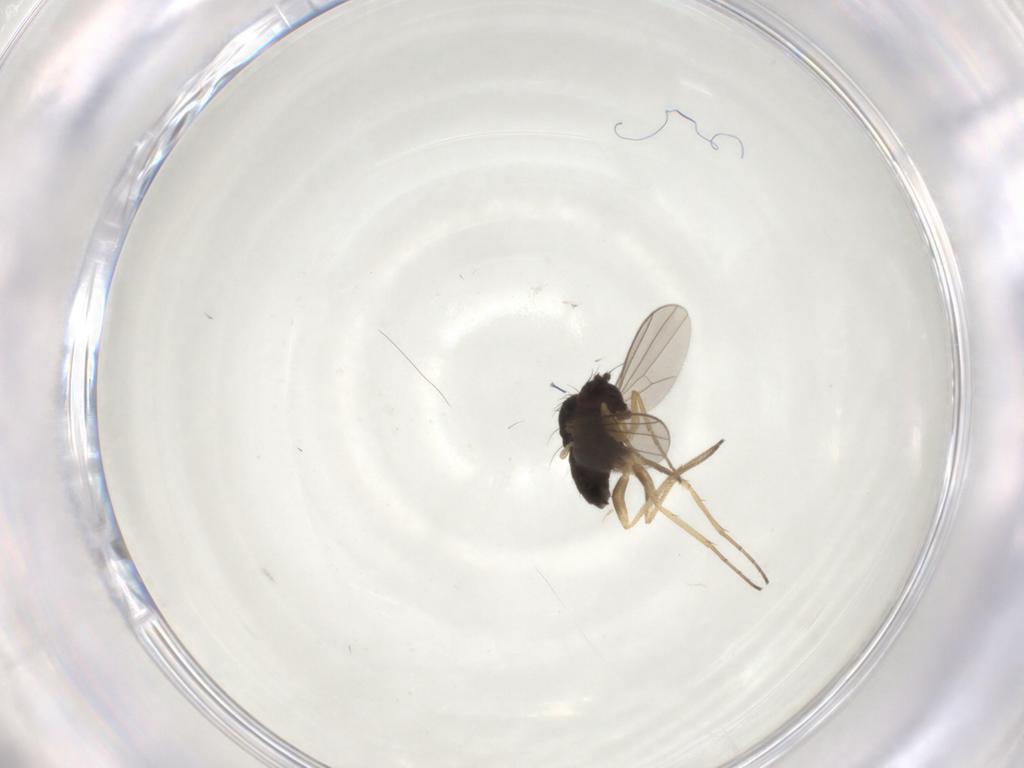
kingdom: Animalia
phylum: Arthropoda
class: Insecta
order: Diptera
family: Dolichopodidae
